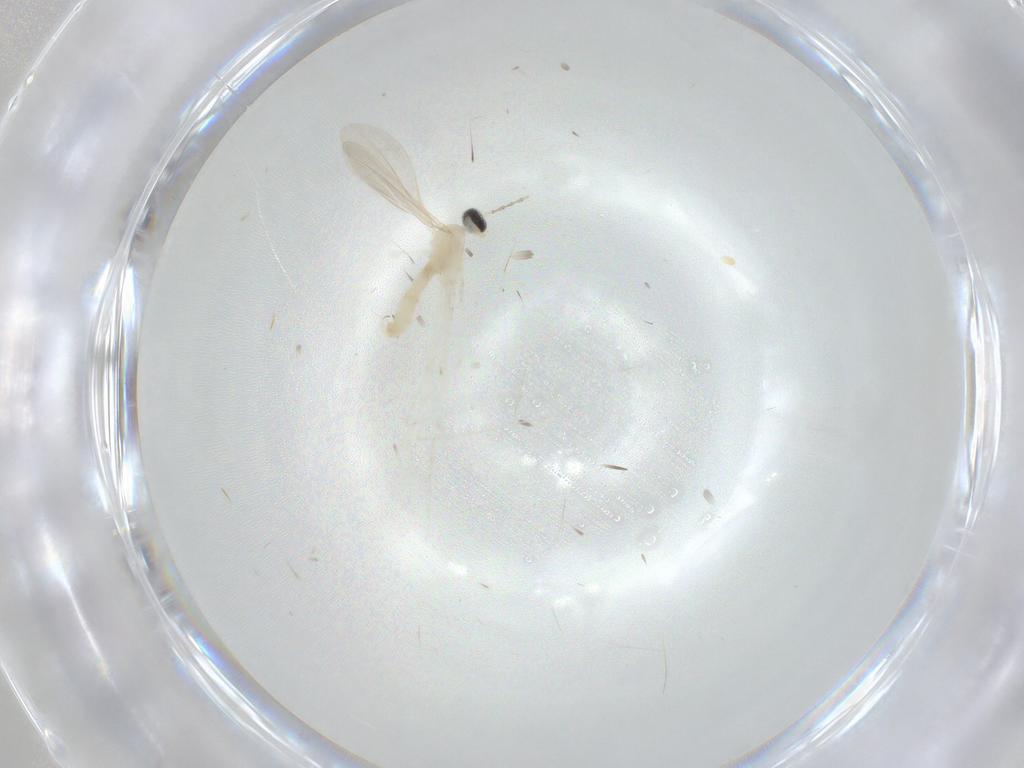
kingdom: Animalia
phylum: Arthropoda
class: Insecta
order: Diptera
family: Cecidomyiidae
